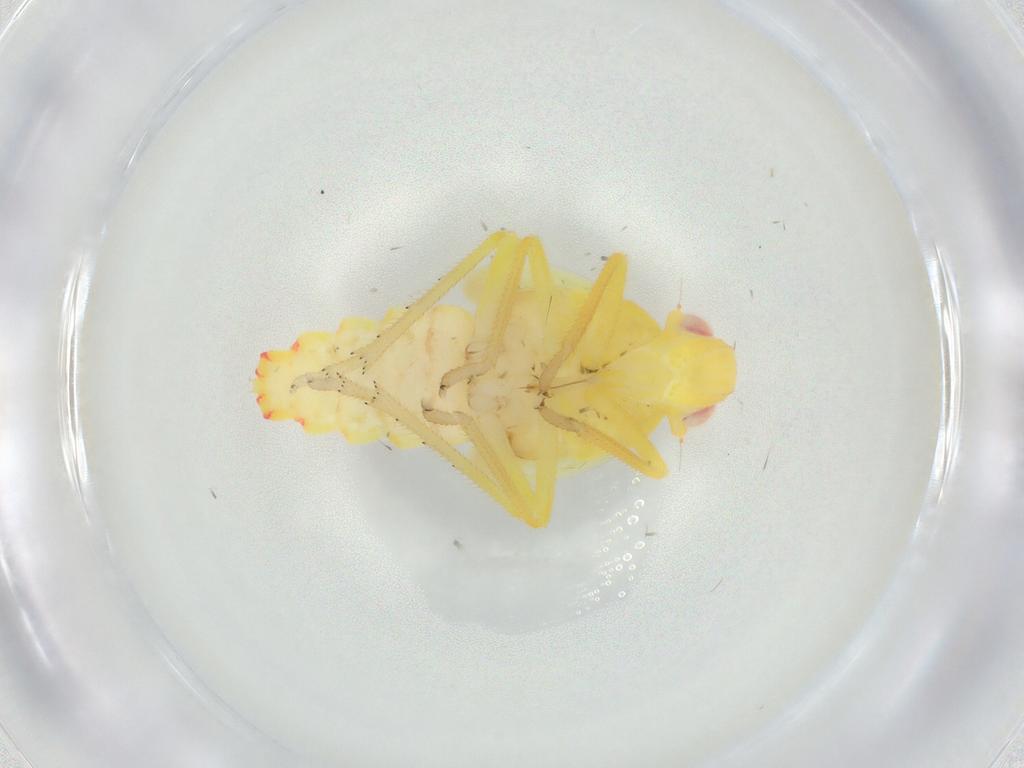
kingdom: Animalia
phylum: Arthropoda
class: Insecta
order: Hemiptera
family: Tropiduchidae
